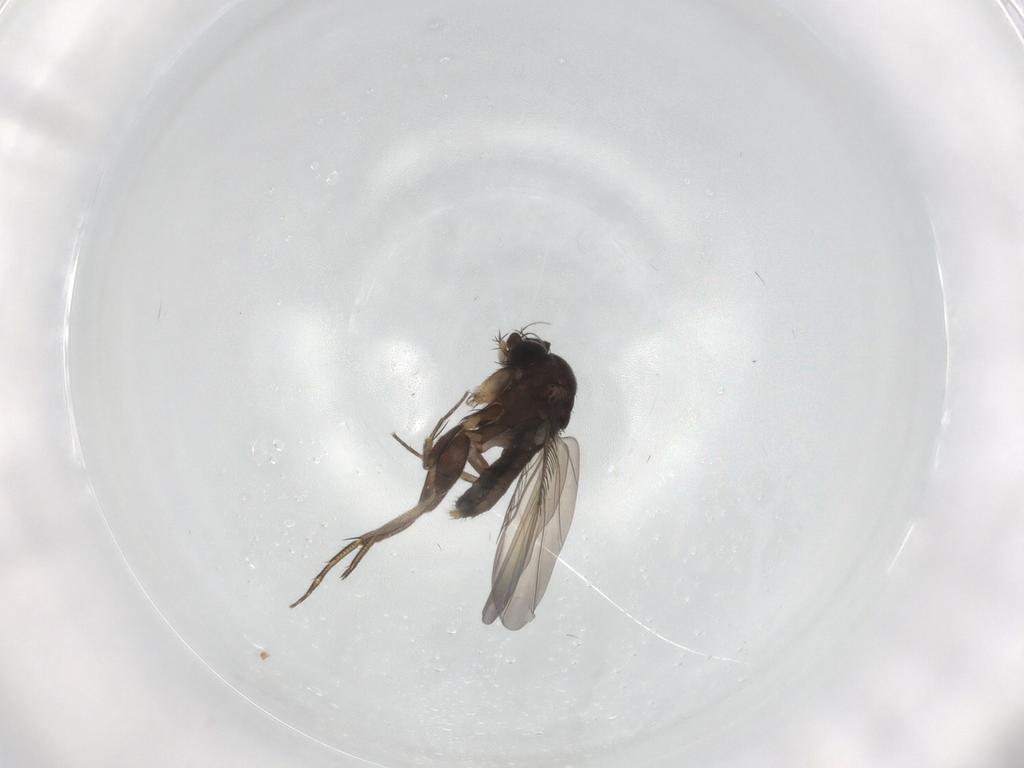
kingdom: Animalia
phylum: Arthropoda
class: Insecta
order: Diptera
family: Phoridae
